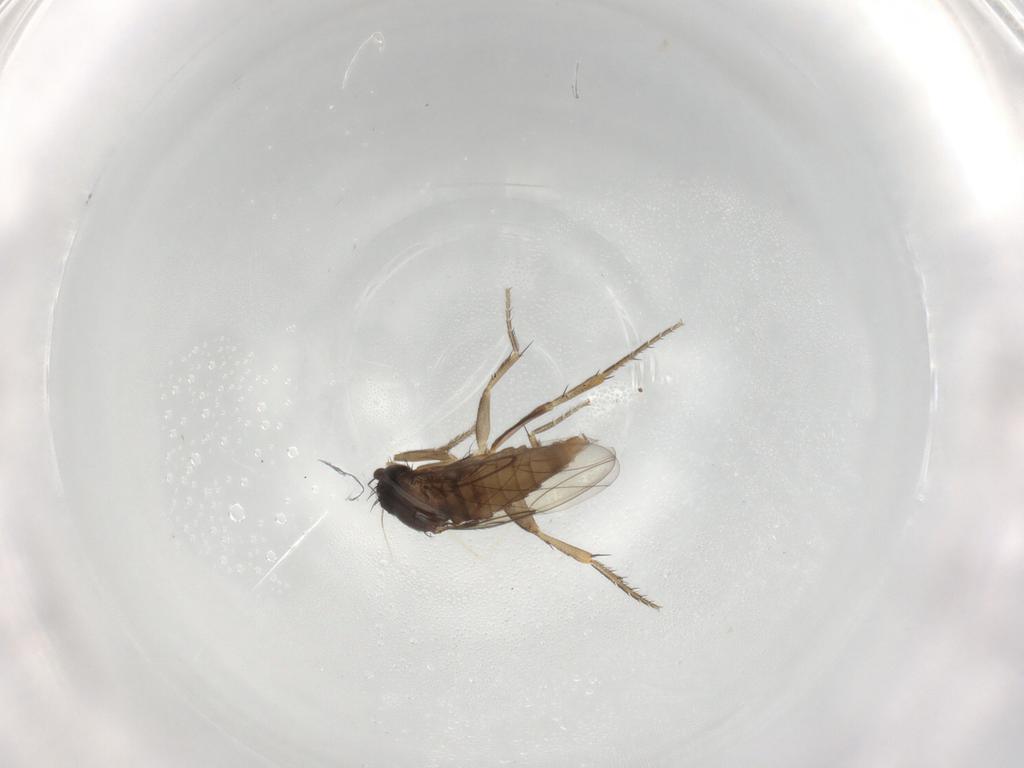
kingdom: Animalia
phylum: Arthropoda
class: Insecta
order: Diptera
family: Phoridae
